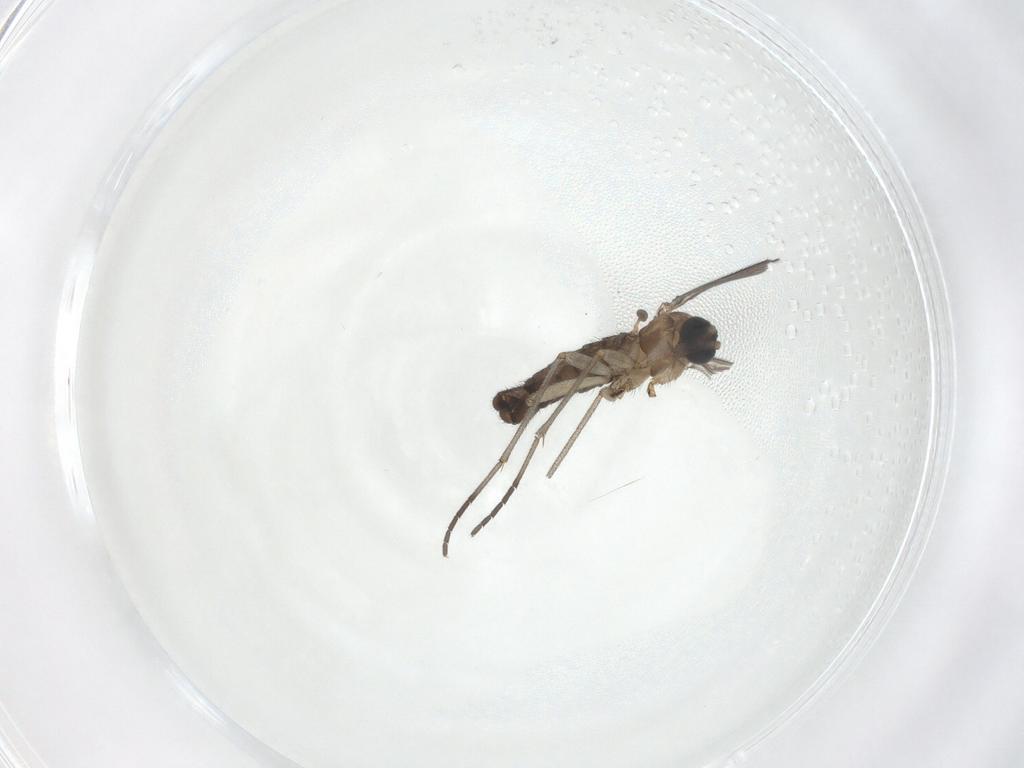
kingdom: Animalia
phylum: Arthropoda
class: Insecta
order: Diptera
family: Sciaridae
